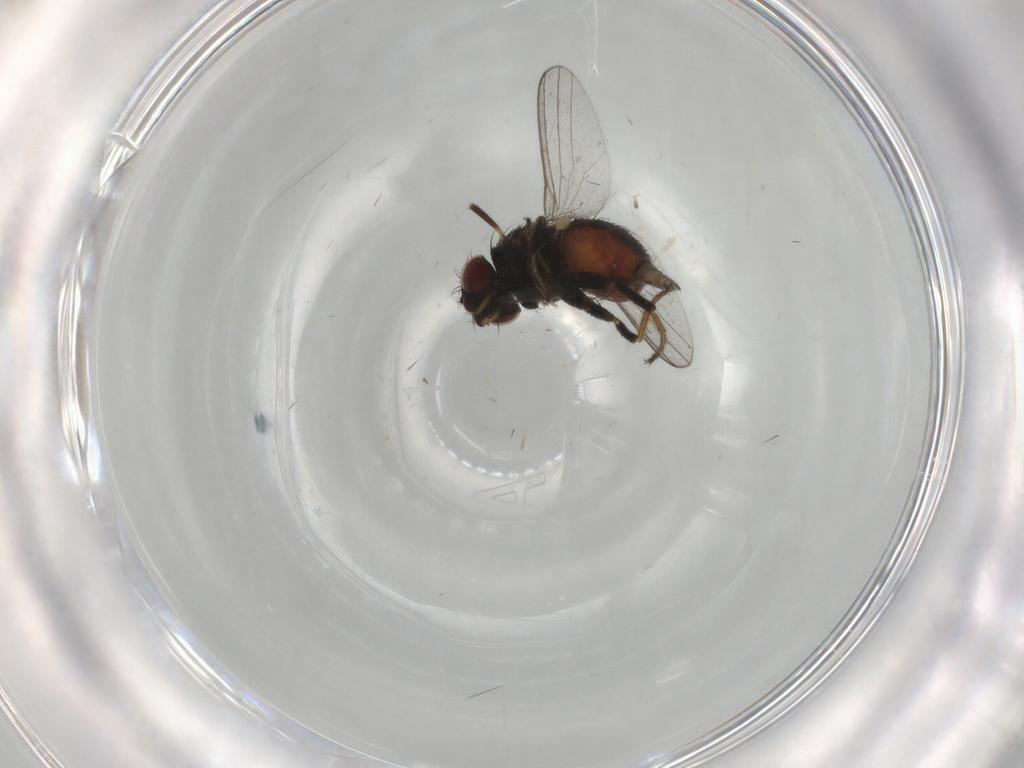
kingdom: Animalia
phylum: Arthropoda
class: Insecta
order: Diptera
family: Milichiidae
